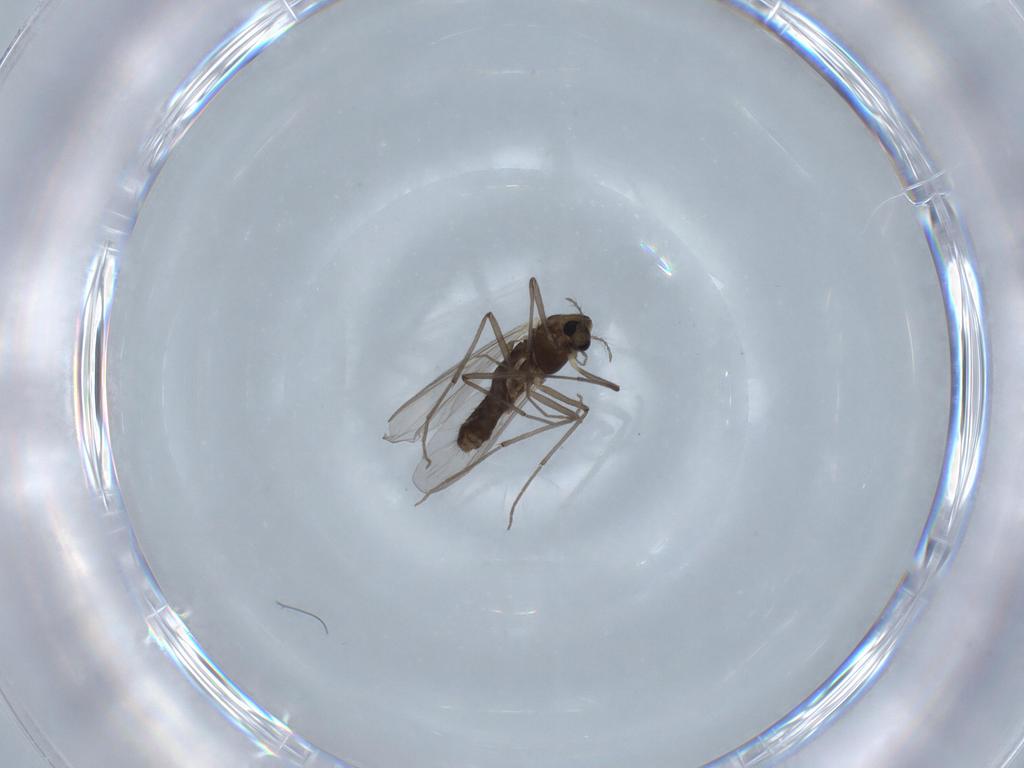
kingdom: Animalia
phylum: Arthropoda
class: Insecta
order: Diptera
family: Chironomidae
